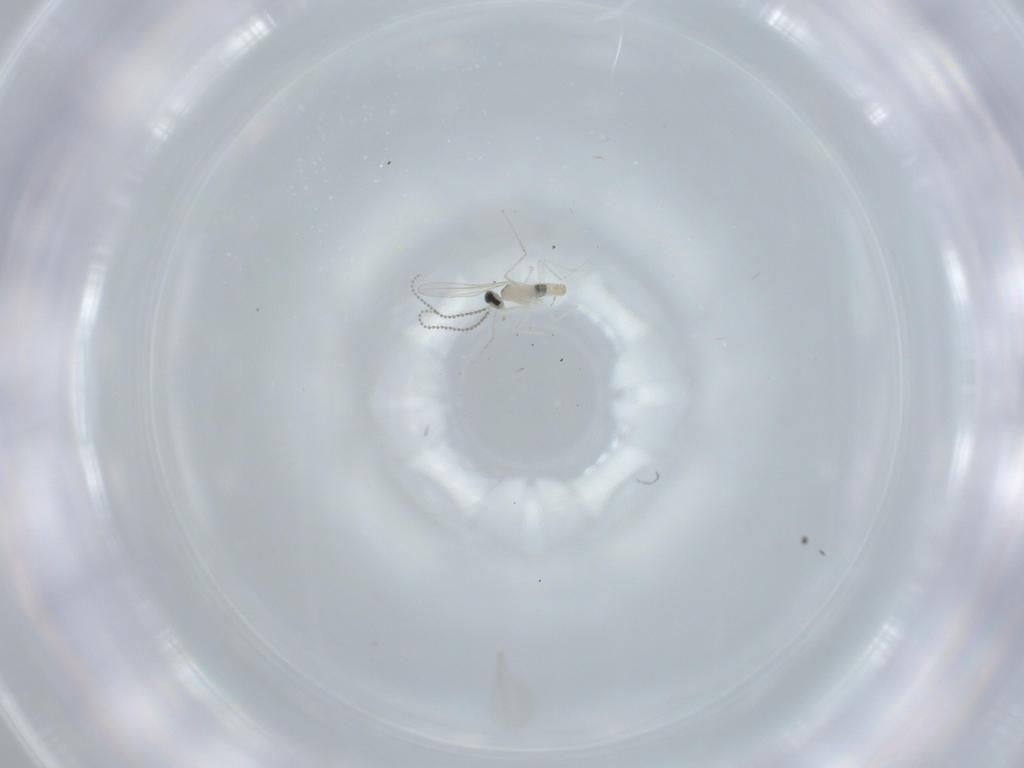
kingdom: Animalia
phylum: Arthropoda
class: Insecta
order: Diptera
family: Cecidomyiidae
